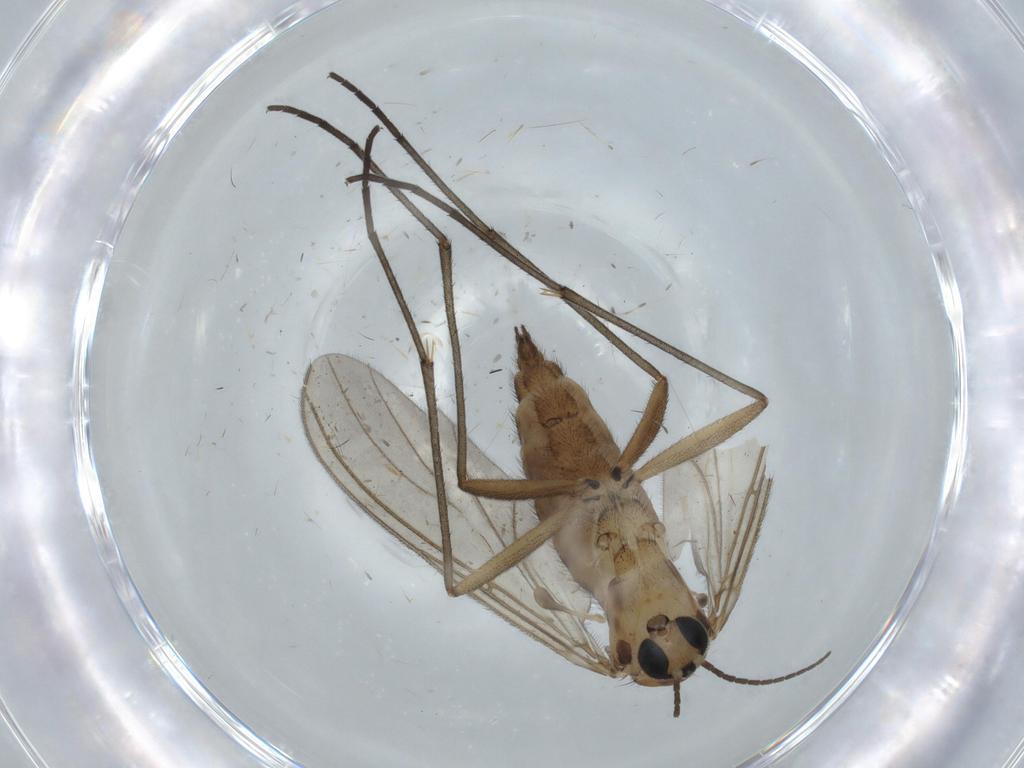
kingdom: Animalia
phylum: Arthropoda
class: Insecta
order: Diptera
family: Sciaridae
